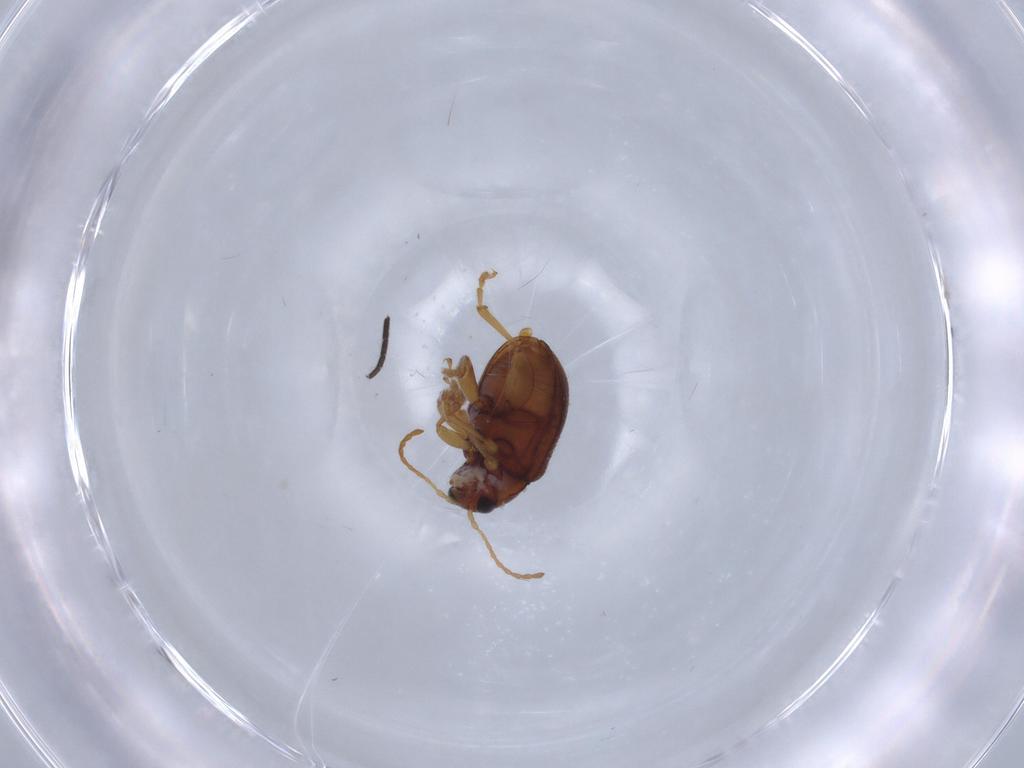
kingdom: Animalia
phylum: Arthropoda
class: Insecta
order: Coleoptera
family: Chrysomelidae
